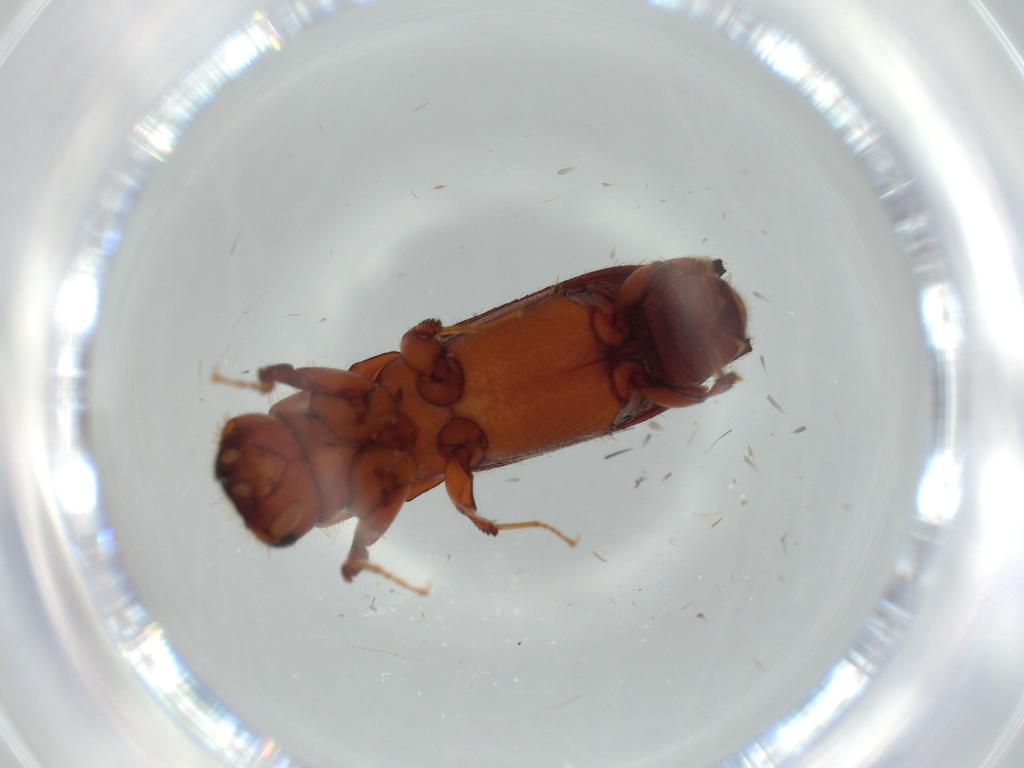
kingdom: Animalia
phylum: Arthropoda
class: Insecta
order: Coleoptera
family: Curculionidae
